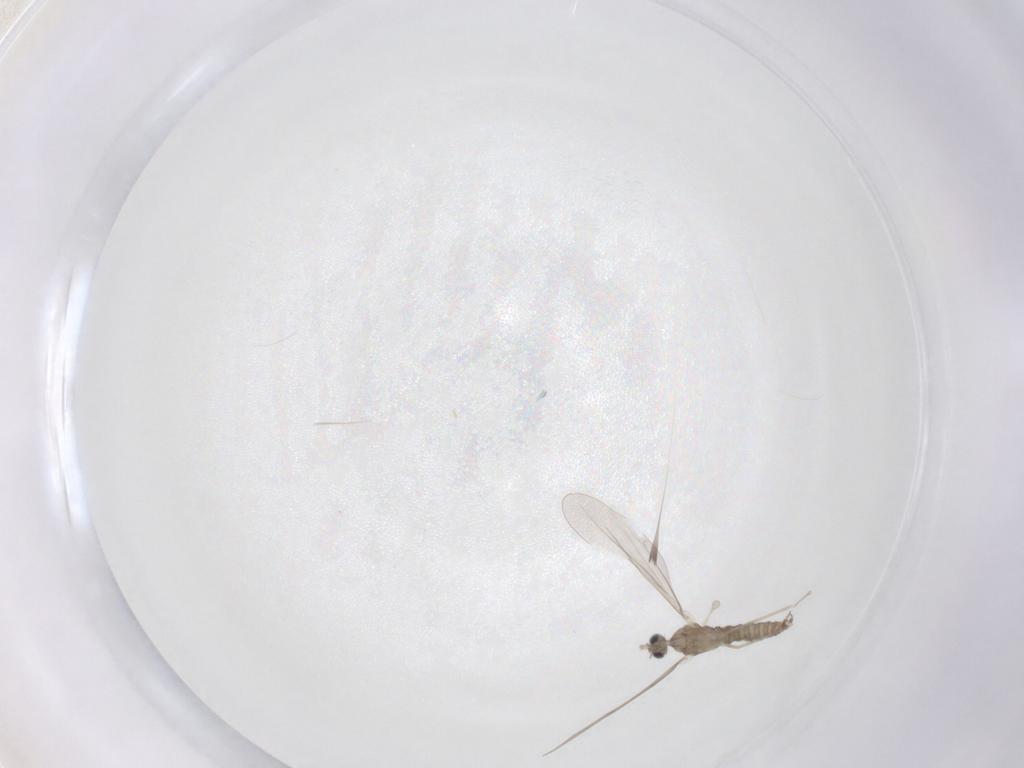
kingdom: Animalia
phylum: Arthropoda
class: Insecta
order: Diptera
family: Cecidomyiidae
